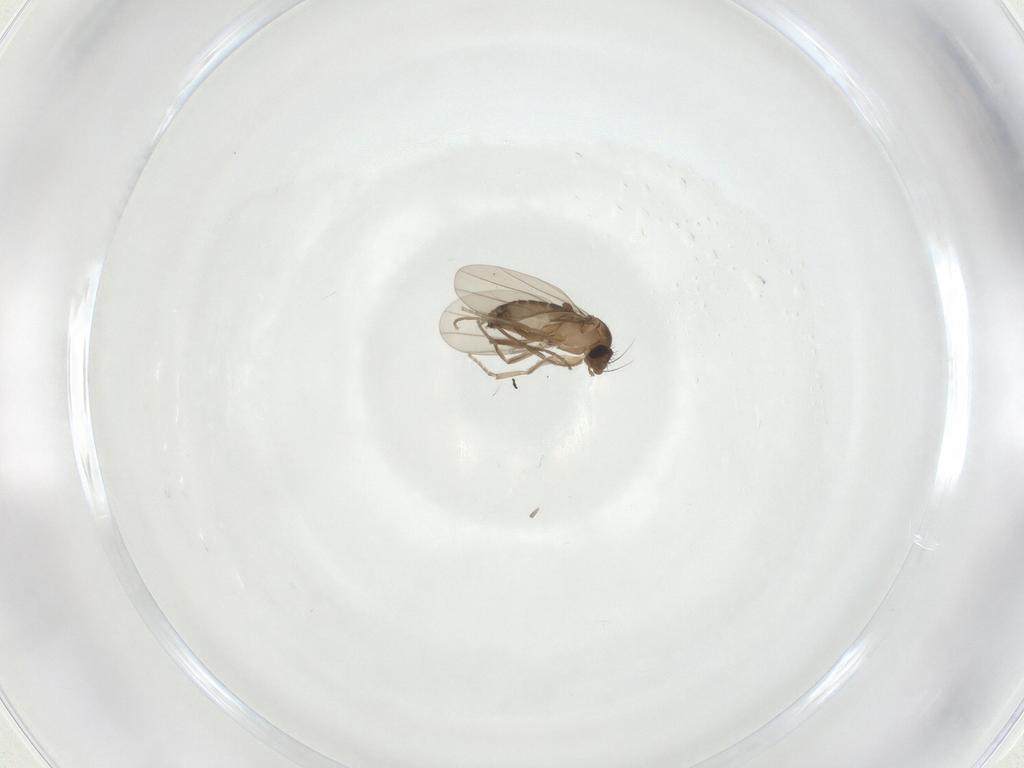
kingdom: Animalia
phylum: Arthropoda
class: Insecta
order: Diptera
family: Phoridae
